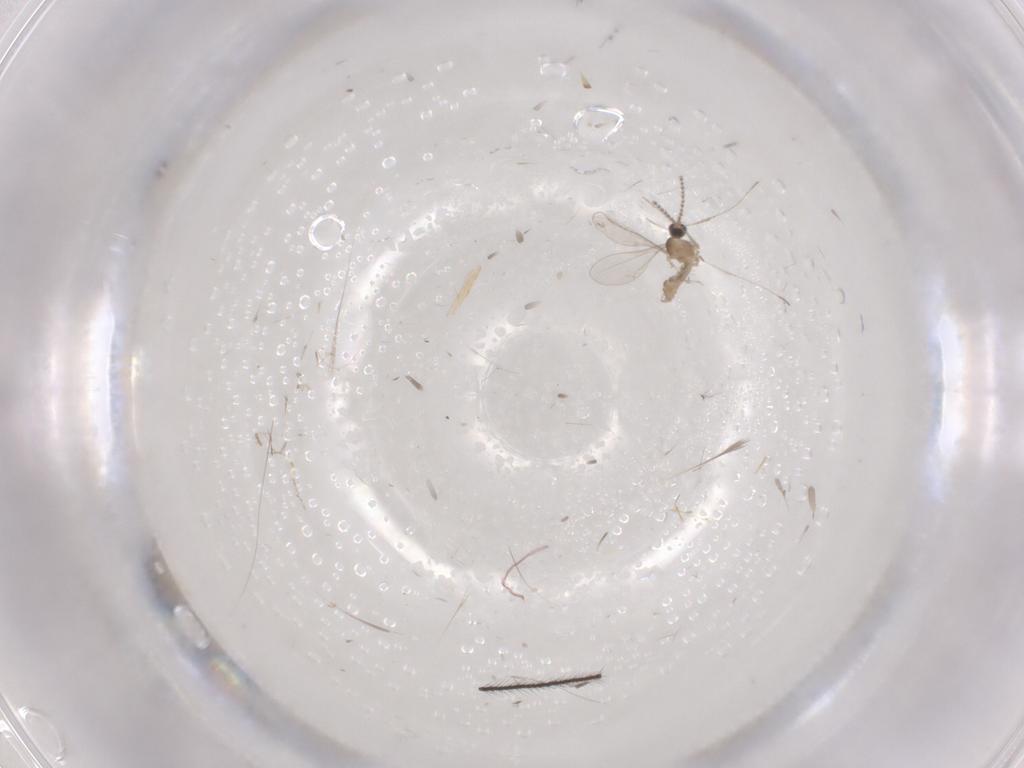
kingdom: Animalia
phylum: Arthropoda
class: Insecta
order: Diptera
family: Cecidomyiidae
